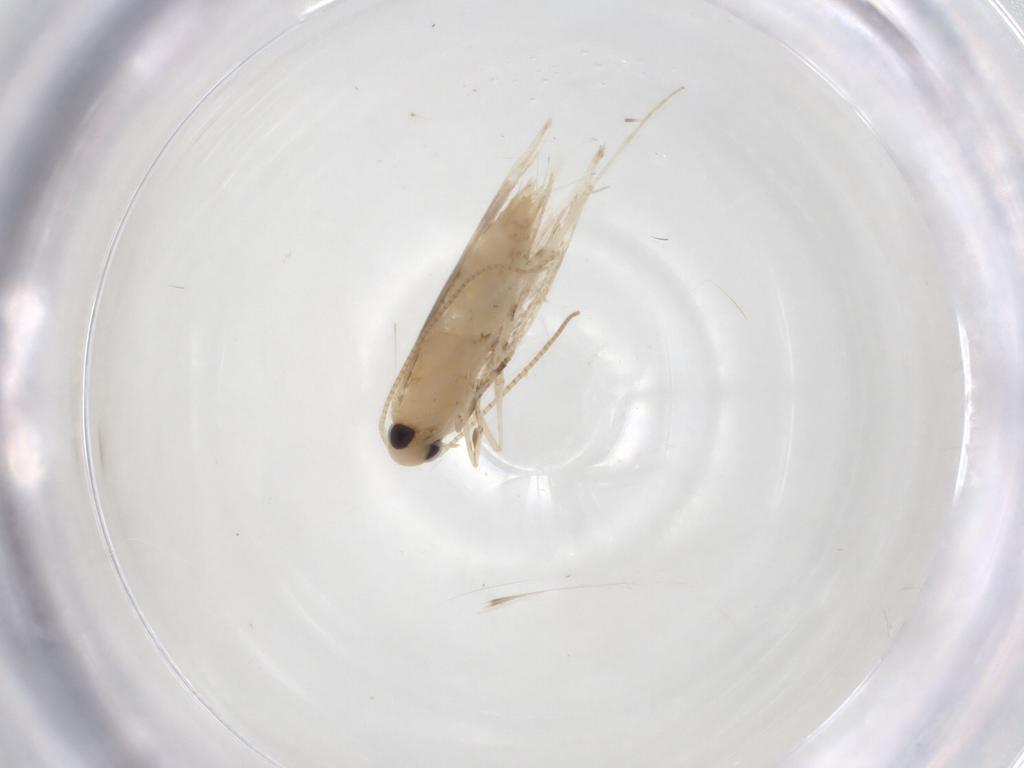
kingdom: Animalia
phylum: Arthropoda
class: Insecta
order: Lepidoptera
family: Gracillariidae
